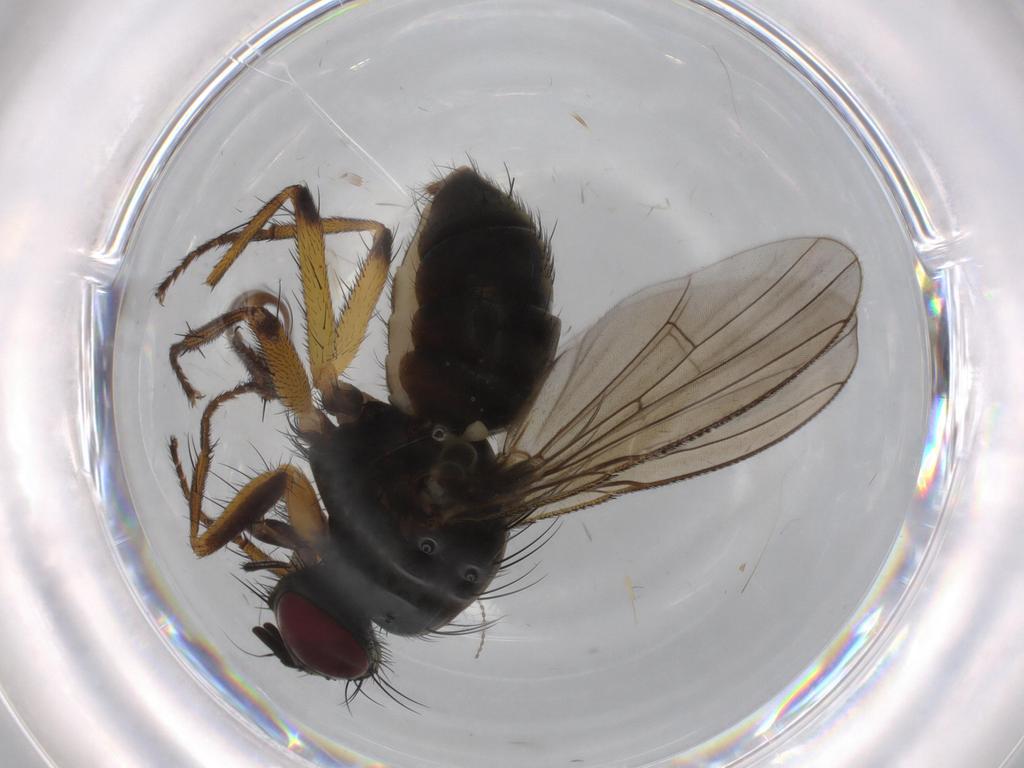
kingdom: Animalia
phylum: Arthropoda
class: Insecta
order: Diptera
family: Muscidae
